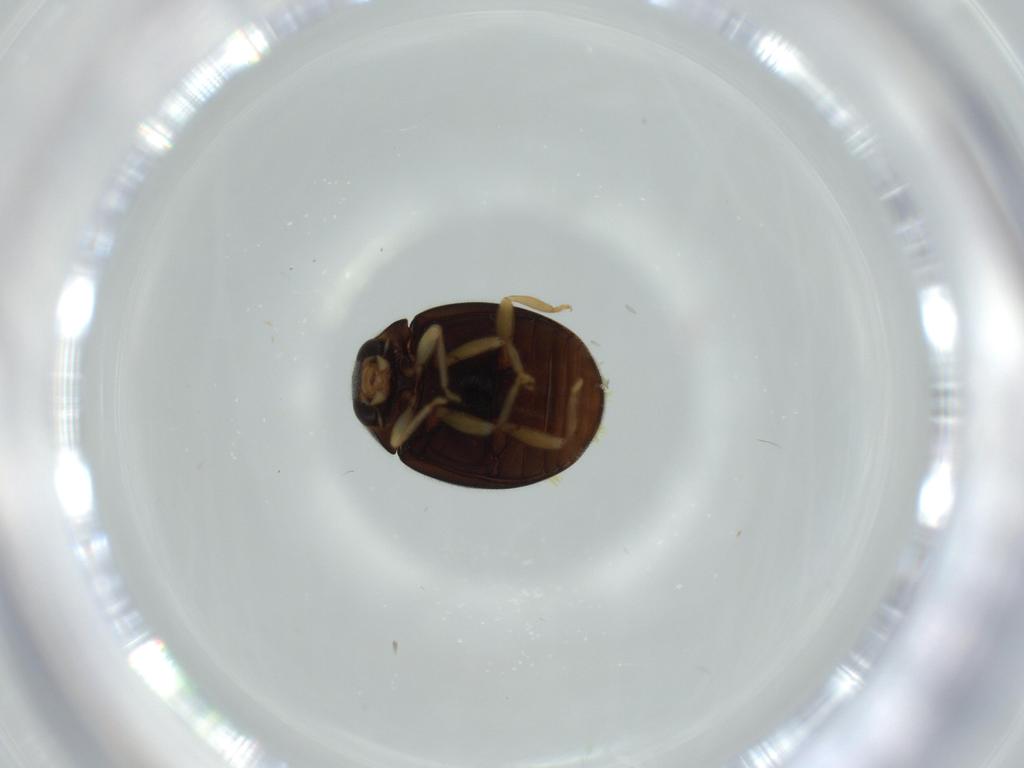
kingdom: Animalia
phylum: Arthropoda
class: Insecta
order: Coleoptera
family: Coccinellidae
